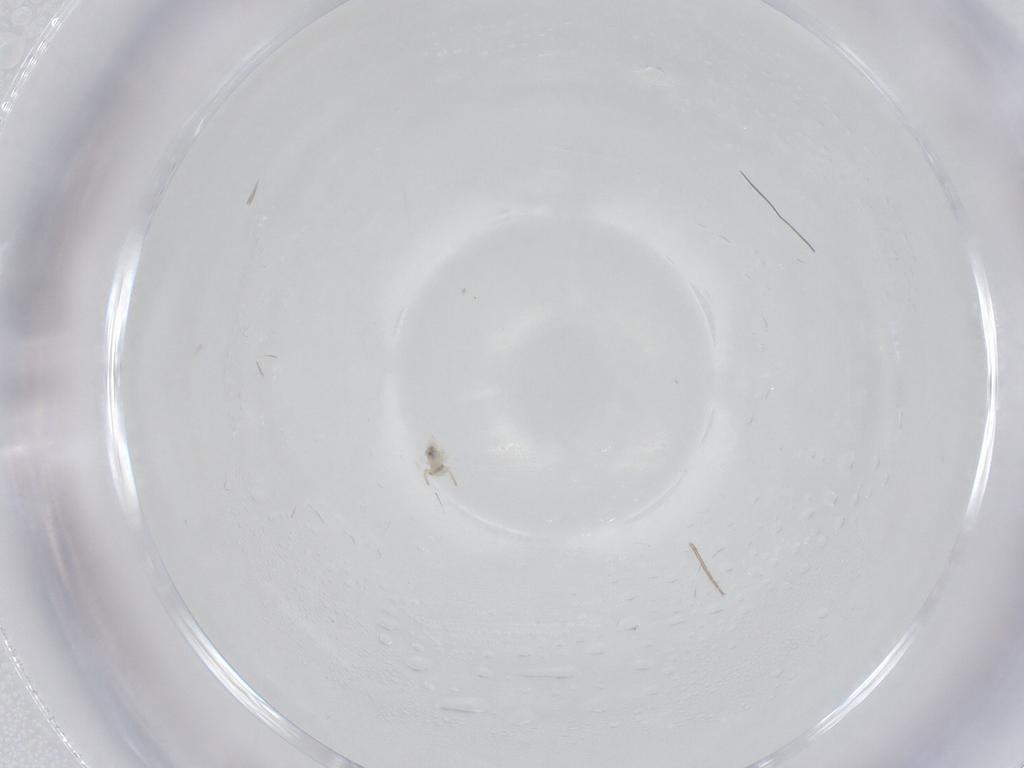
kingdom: Animalia
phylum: Arthropoda
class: Insecta
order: Diptera
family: Chironomidae
